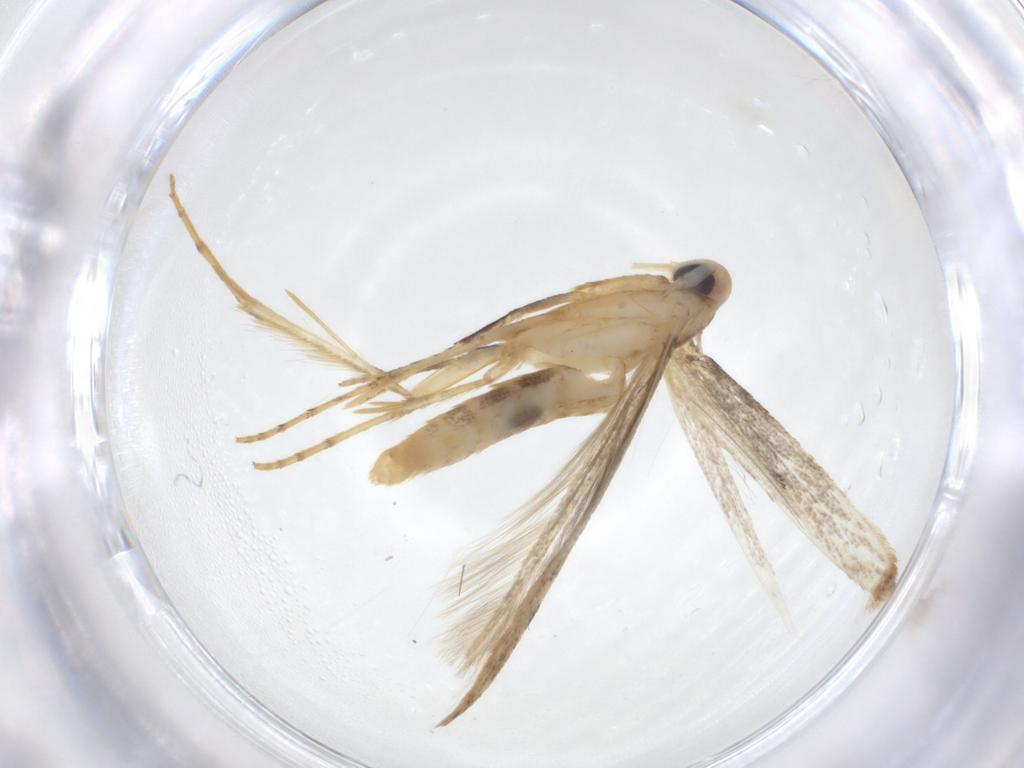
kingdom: Animalia
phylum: Arthropoda
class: Insecta
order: Lepidoptera
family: Erebidae
